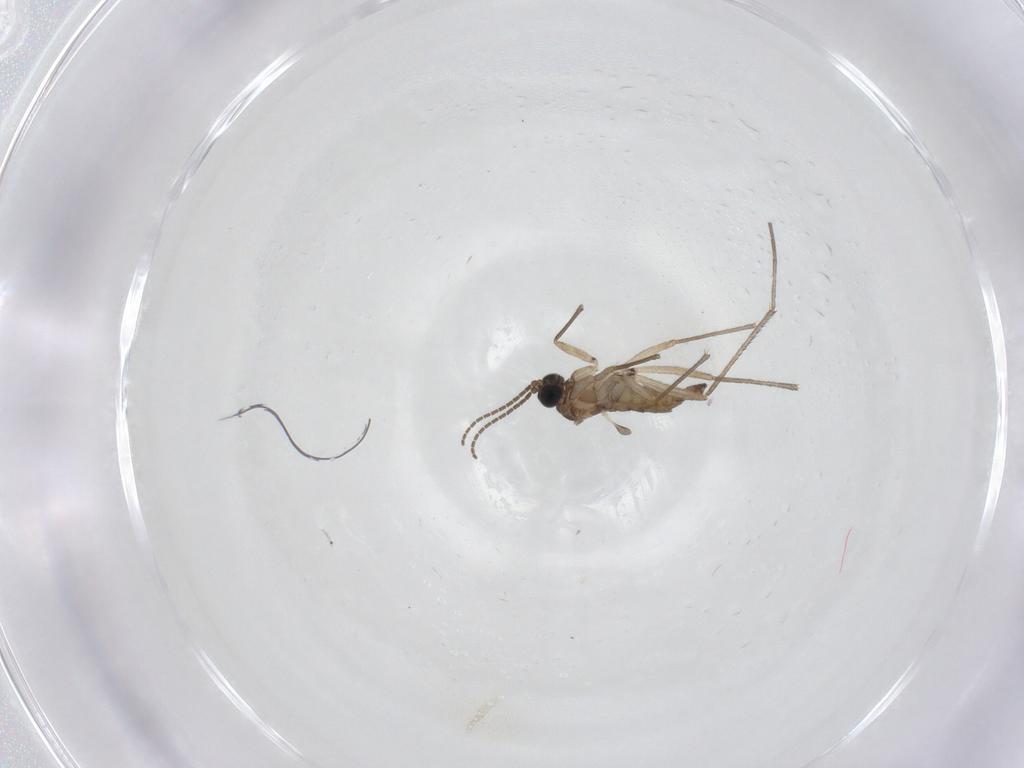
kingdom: Animalia
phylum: Arthropoda
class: Insecta
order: Diptera
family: Sciaridae
